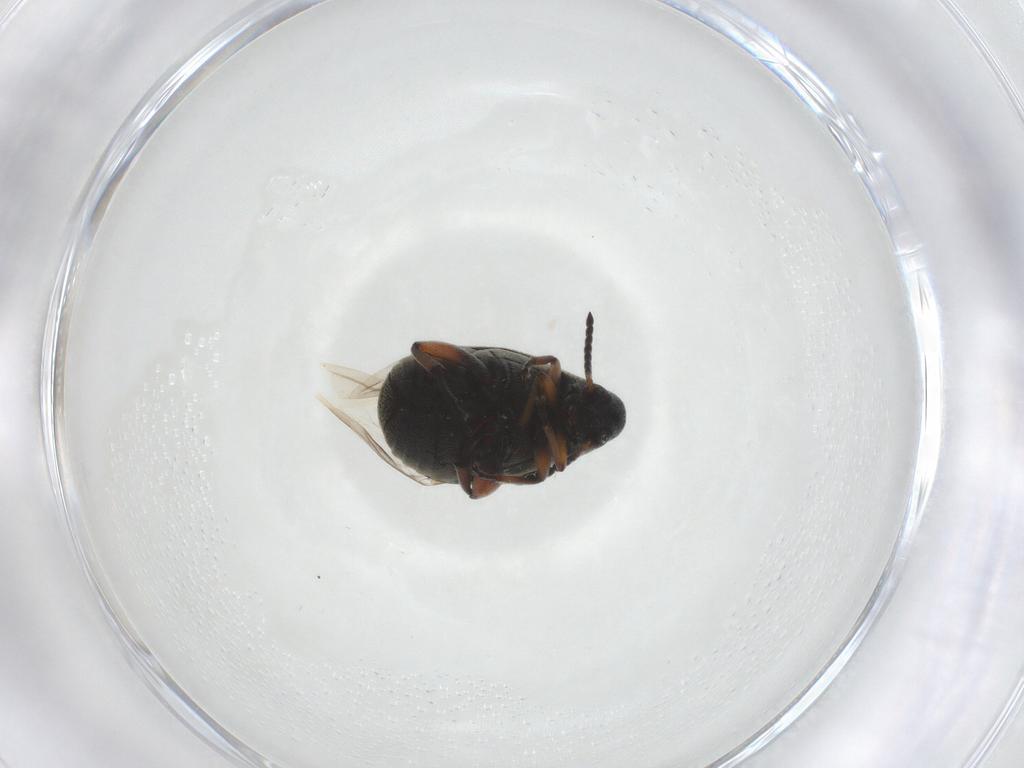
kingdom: Animalia
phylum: Arthropoda
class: Insecta
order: Coleoptera
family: Chrysomelidae
